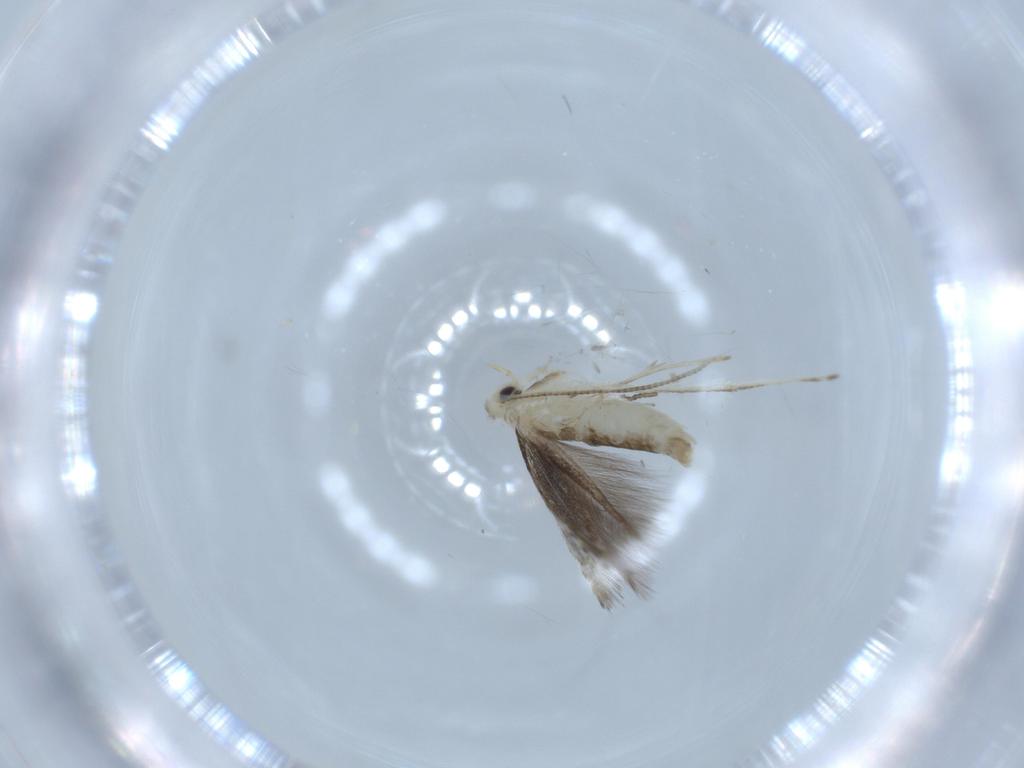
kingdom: Animalia
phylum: Arthropoda
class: Insecta
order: Lepidoptera
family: Gracillariidae
